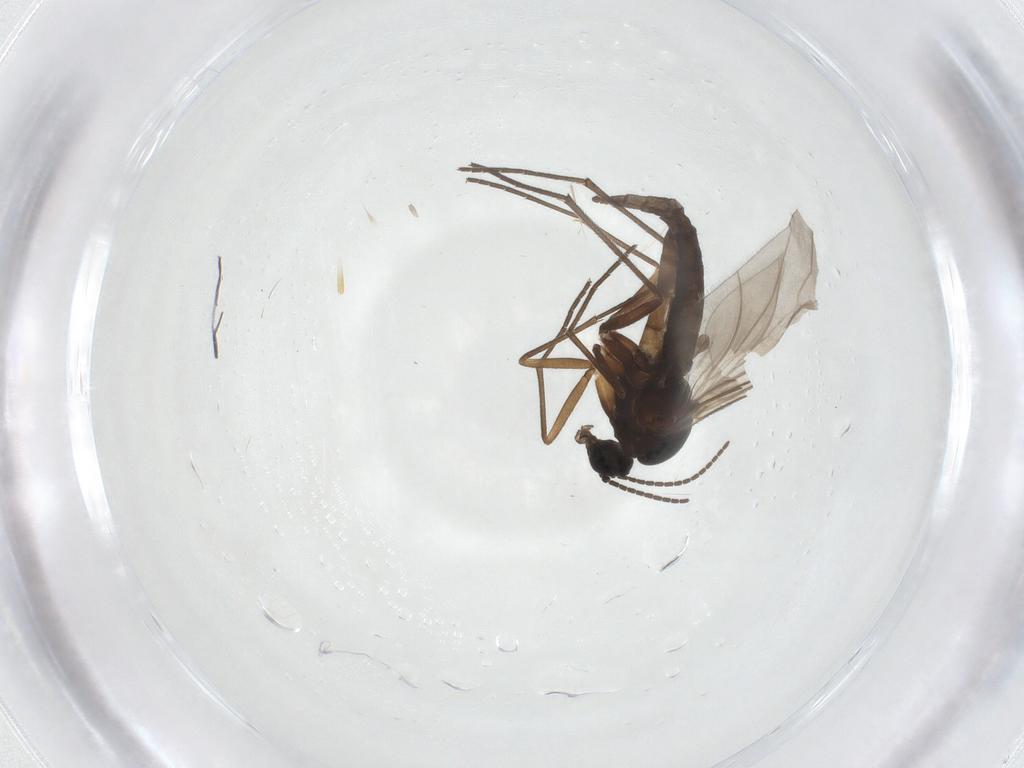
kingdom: Animalia
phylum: Arthropoda
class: Insecta
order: Diptera
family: Sciaridae
